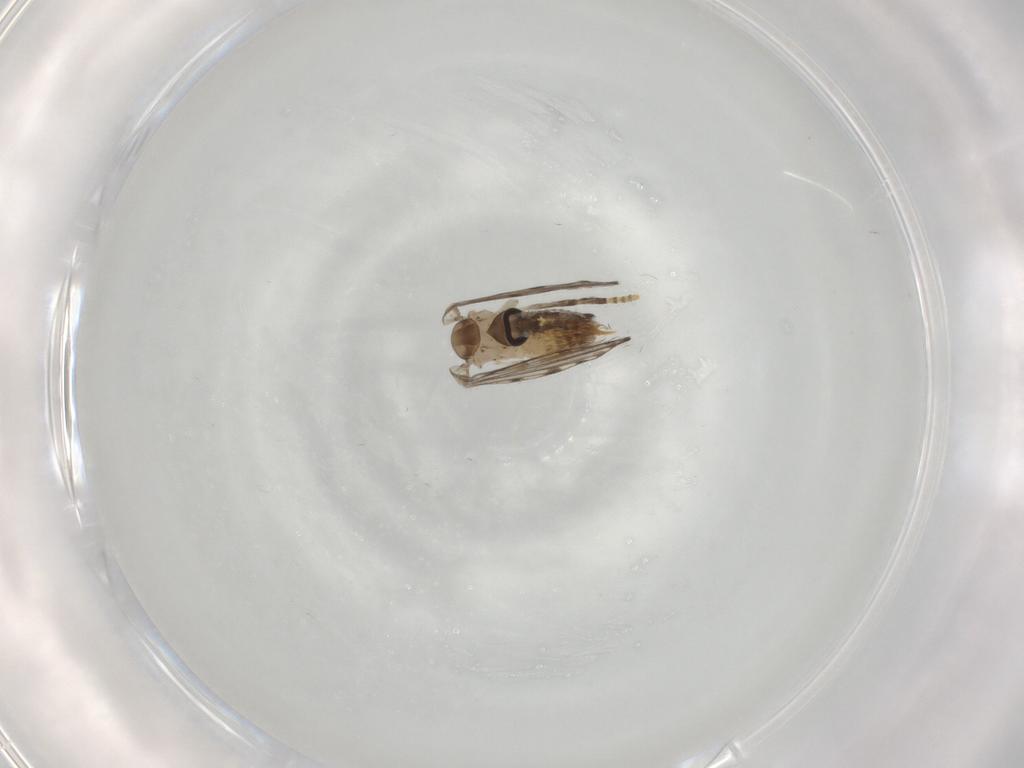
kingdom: Animalia
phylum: Arthropoda
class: Insecta
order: Diptera
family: Psychodidae
